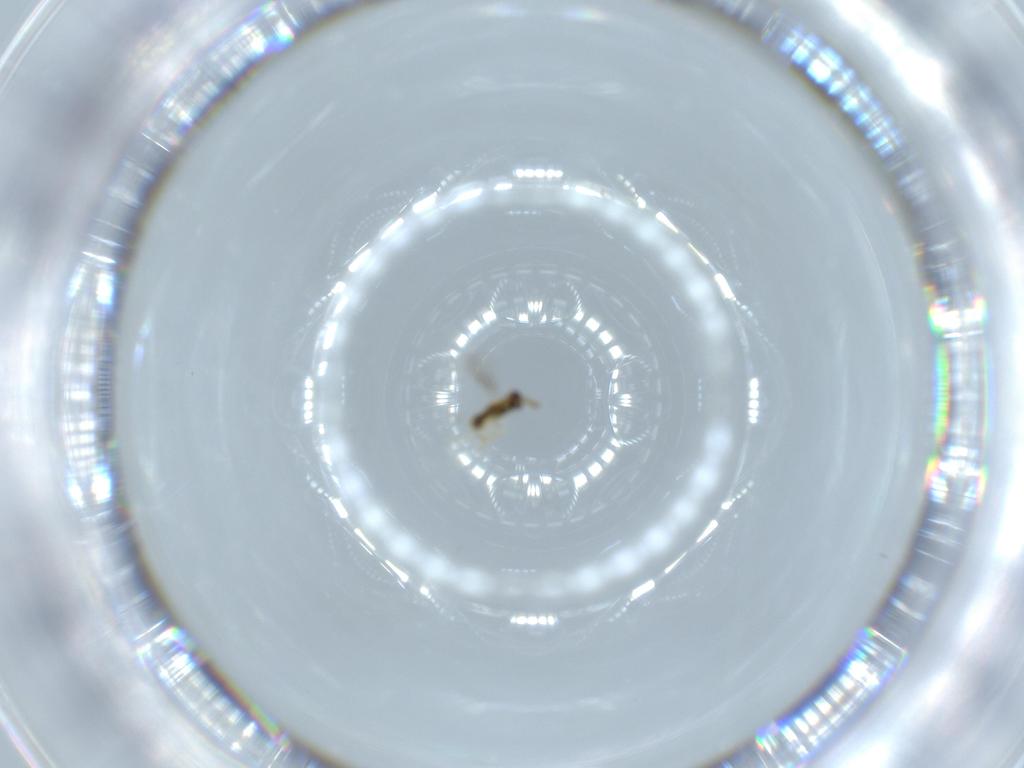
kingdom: Animalia
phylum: Arthropoda
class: Insecta
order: Hymenoptera
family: Aphelinidae
